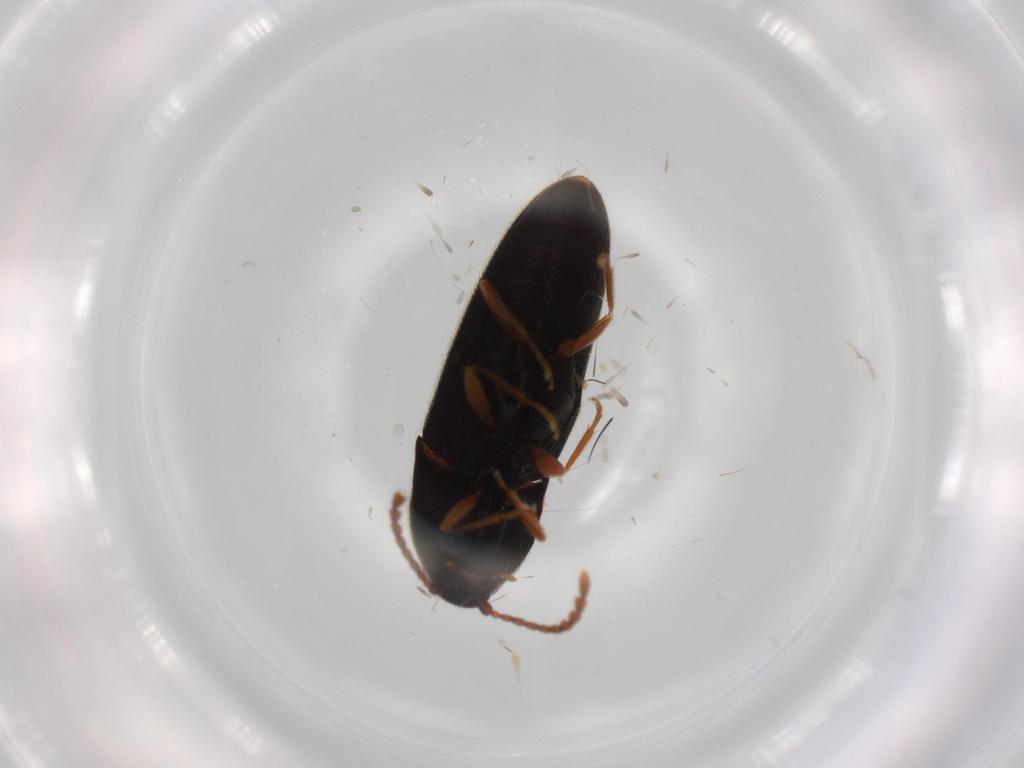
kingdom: Animalia
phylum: Arthropoda
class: Insecta
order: Coleoptera
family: Elateridae
